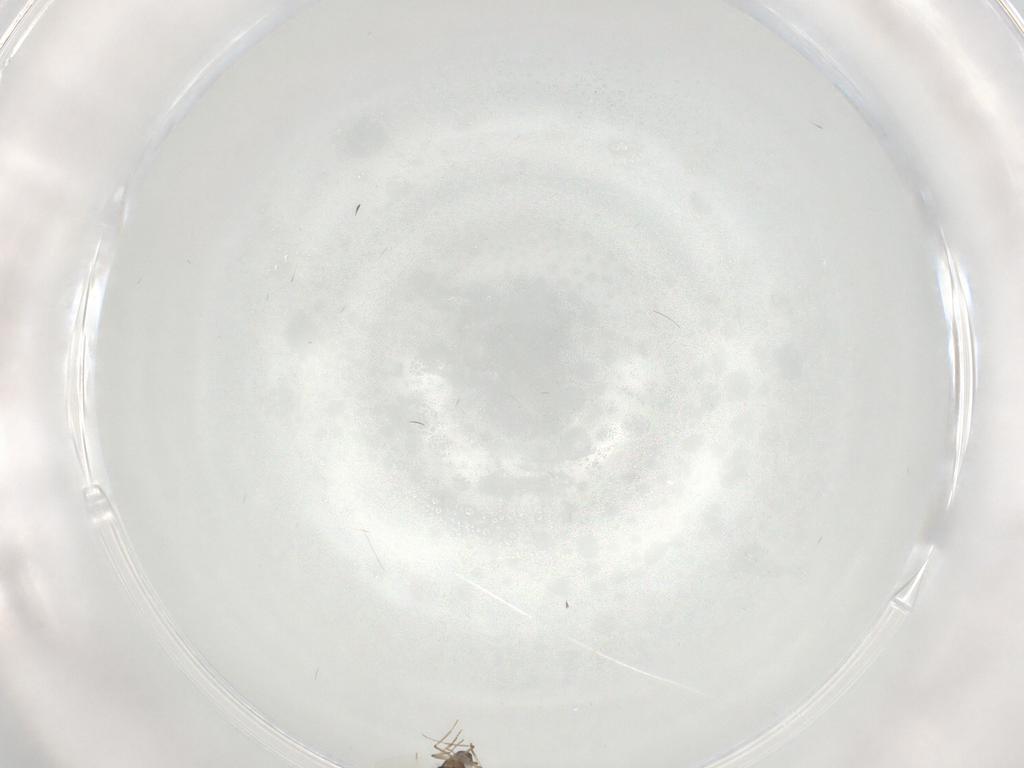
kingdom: Animalia
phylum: Arthropoda
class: Insecta
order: Diptera
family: Ceratopogonidae
